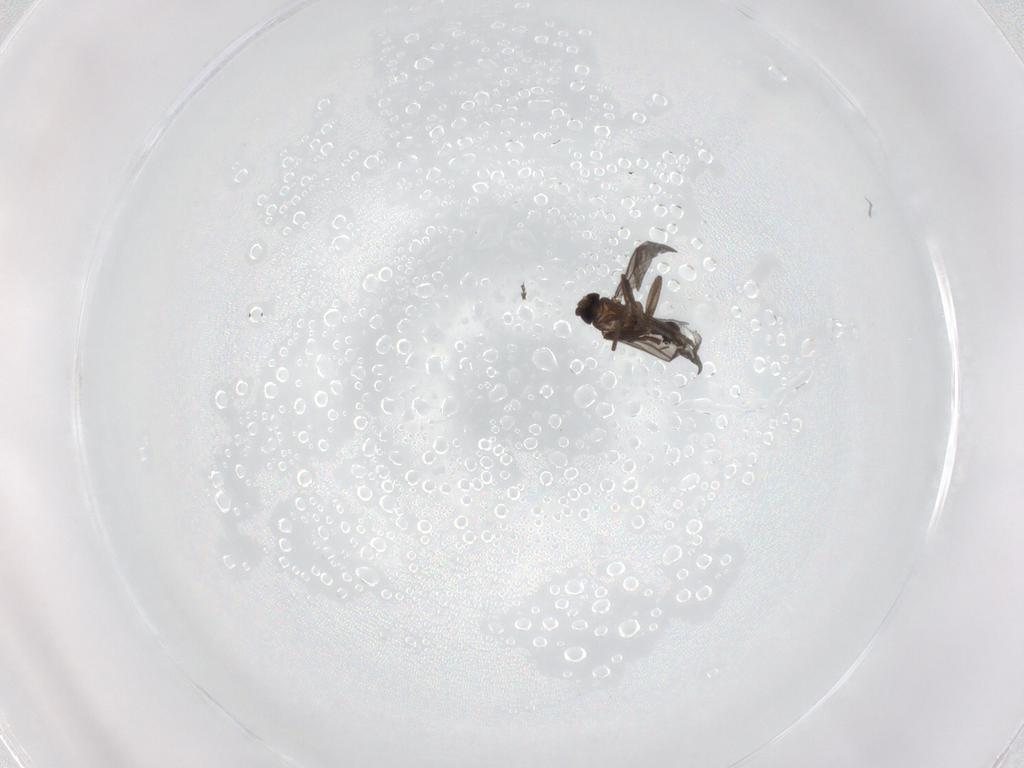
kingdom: Animalia
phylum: Arthropoda
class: Insecta
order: Diptera
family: Phoridae
